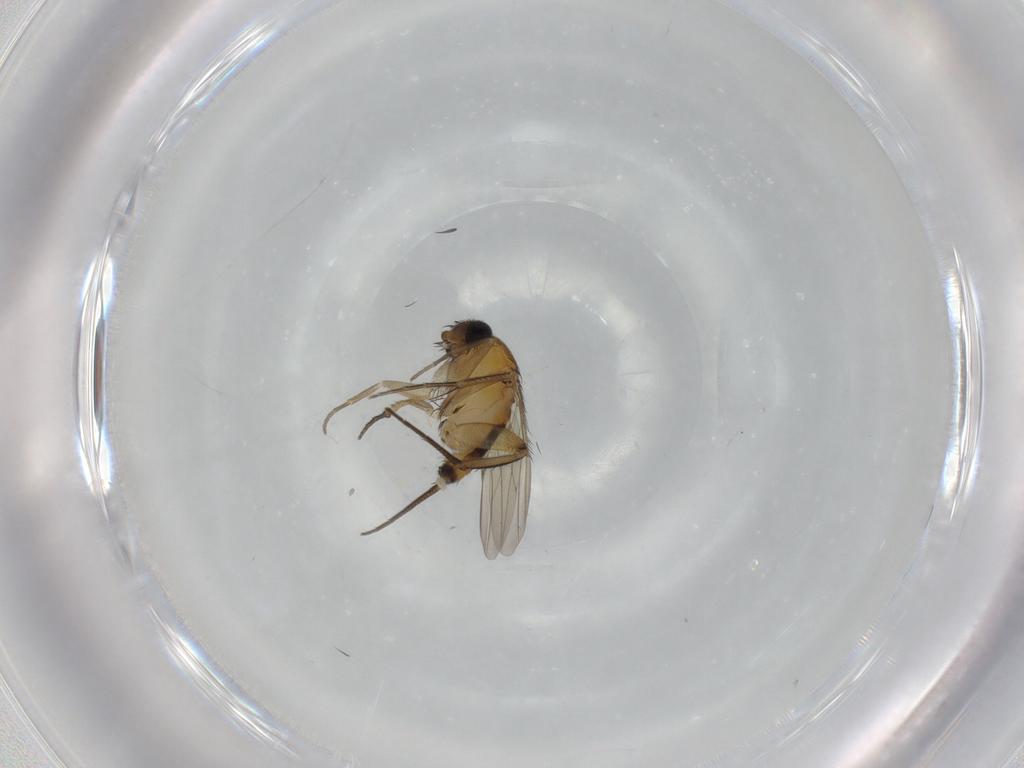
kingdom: Animalia
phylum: Arthropoda
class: Insecta
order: Diptera
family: Phoridae
